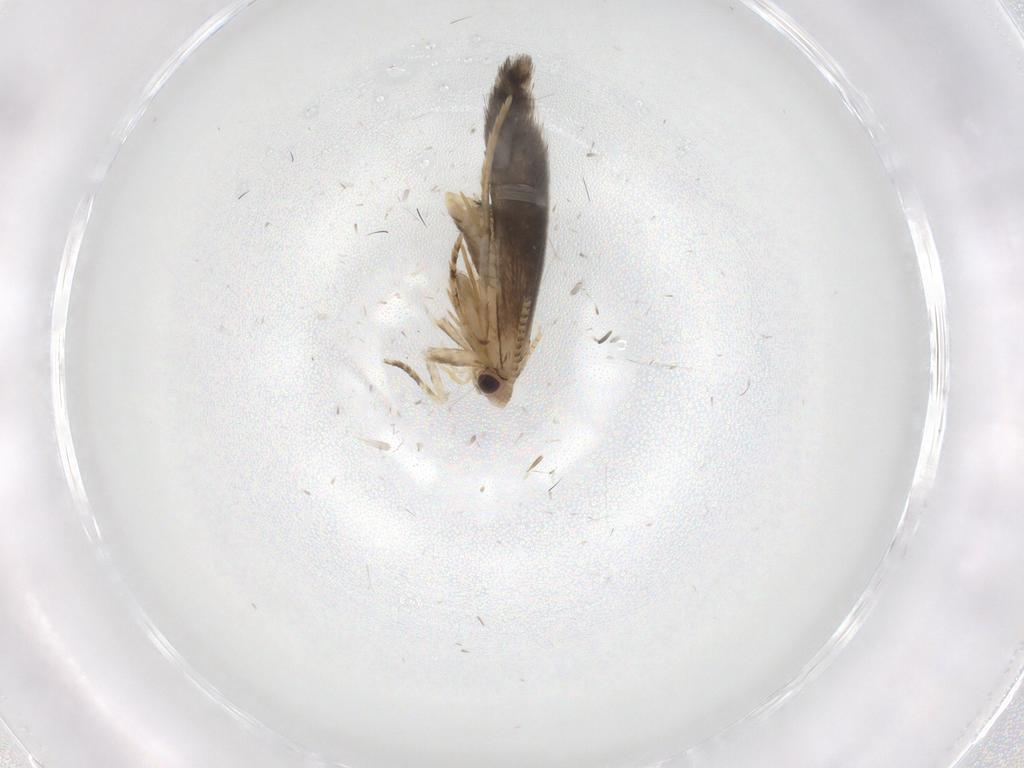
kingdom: Animalia
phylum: Arthropoda
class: Insecta
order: Lepidoptera
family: Tineidae
